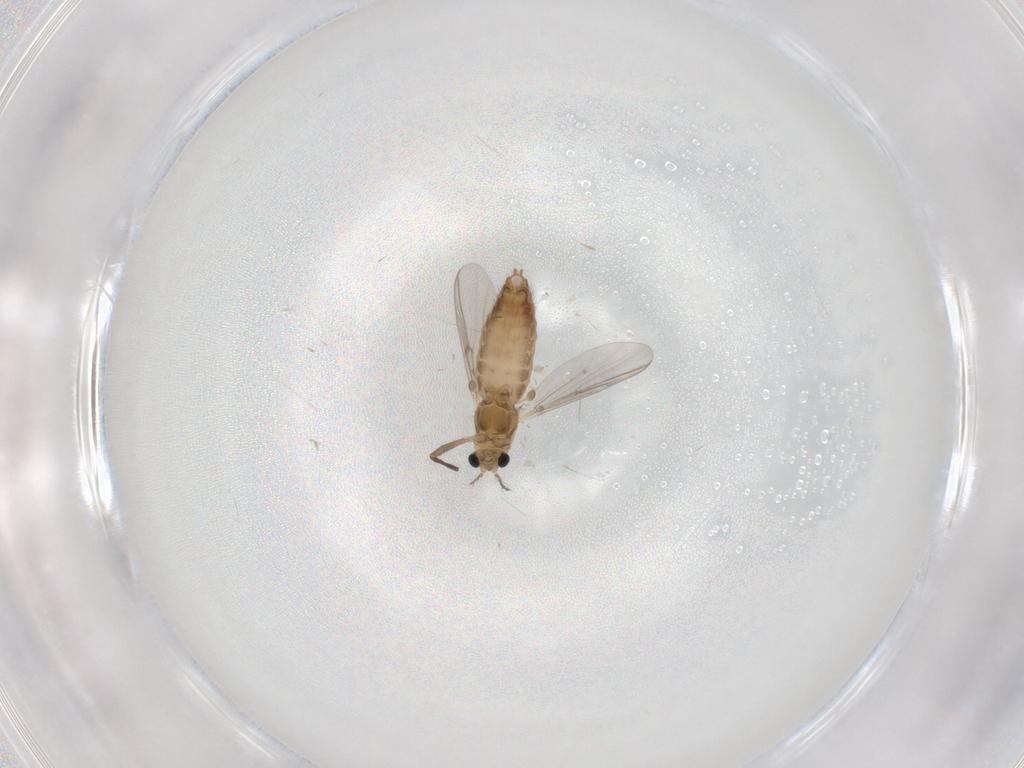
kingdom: Animalia
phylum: Arthropoda
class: Insecta
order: Diptera
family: Chironomidae
